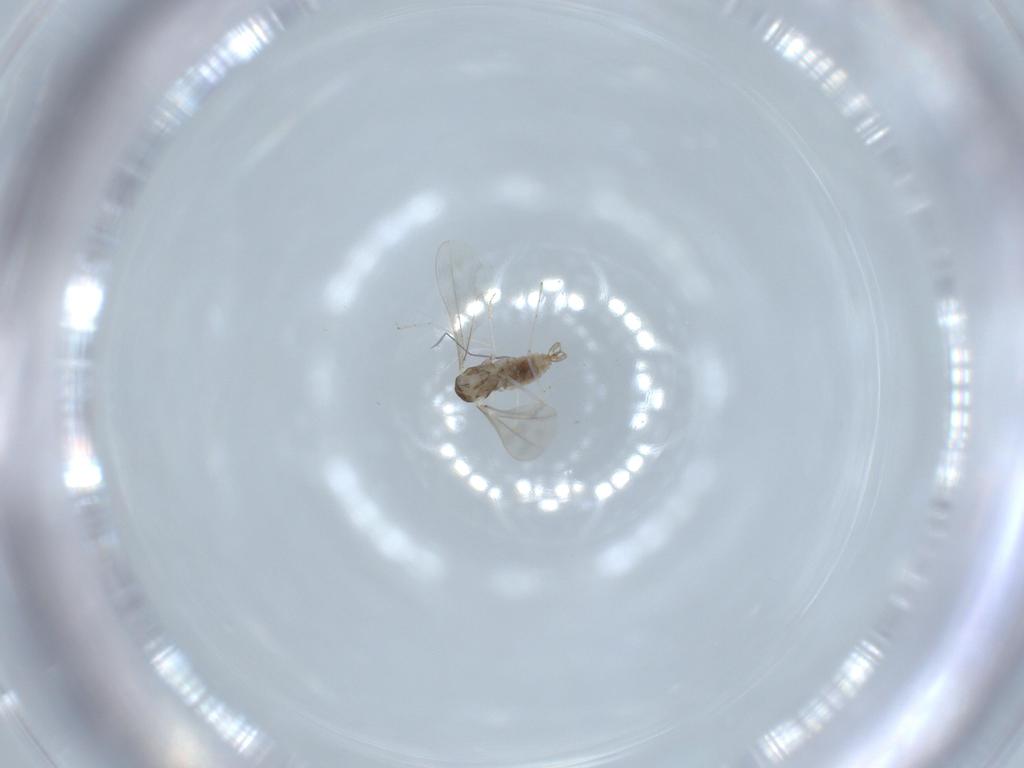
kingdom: Animalia
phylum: Arthropoda
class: Insecta
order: Diptera
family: Cecidomyiidae
